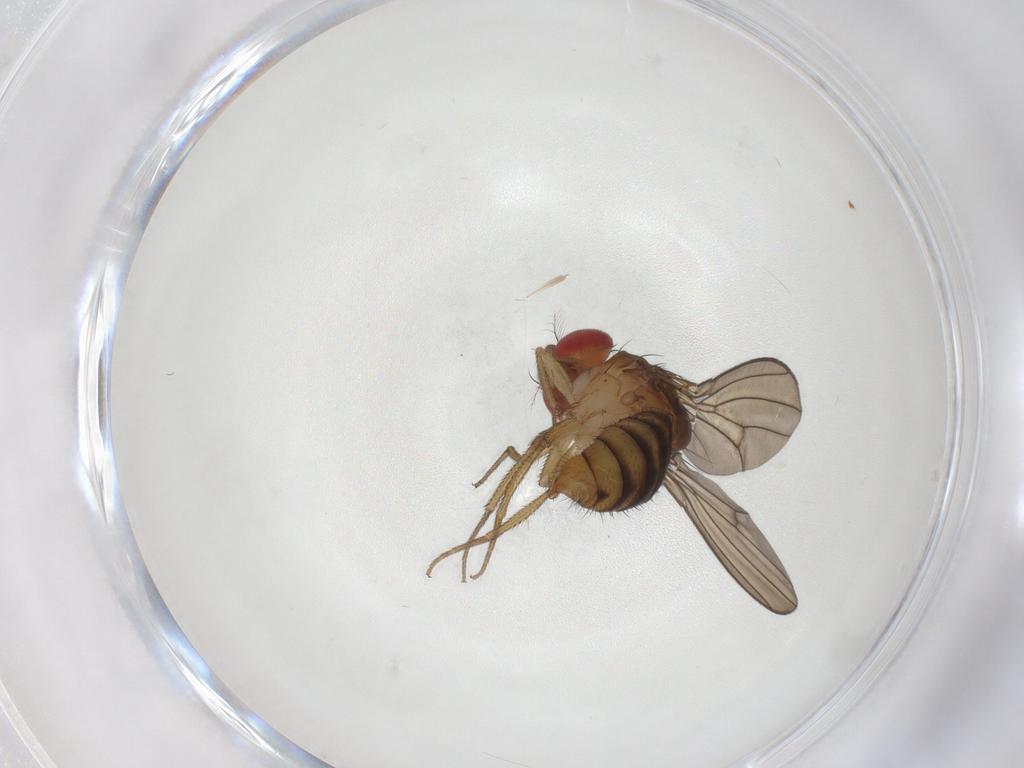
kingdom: Animalia
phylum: Arthropoda
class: Insecta
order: Diptera
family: Drosophilidae
